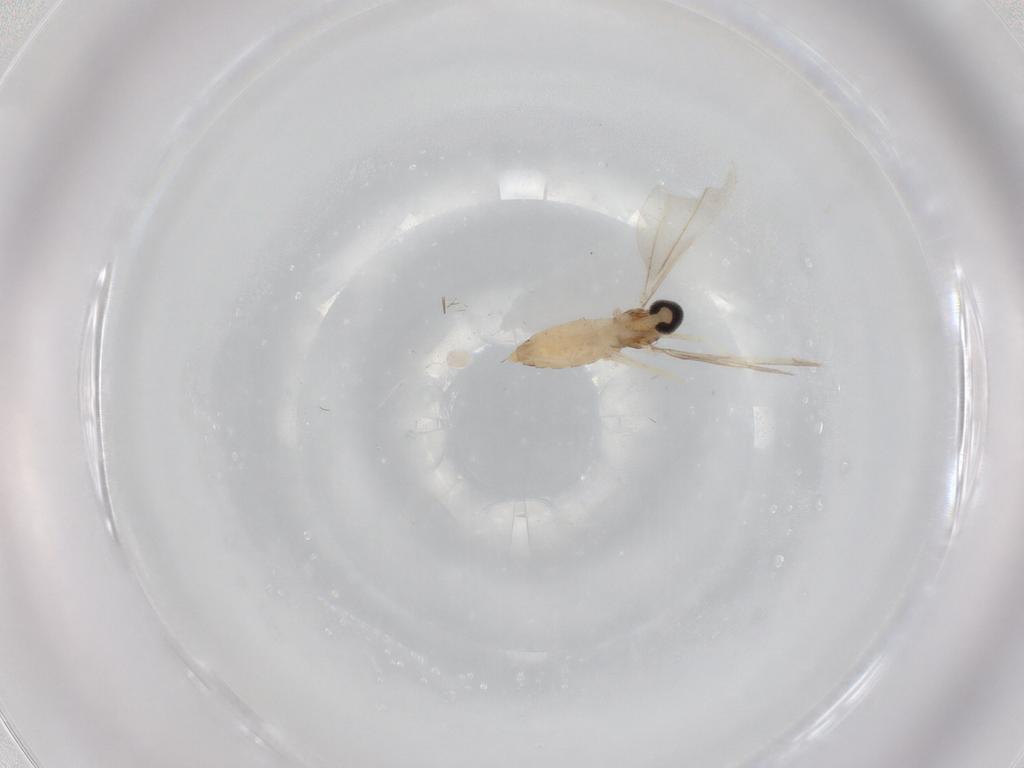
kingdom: Animalia
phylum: Arthropoda
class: Insecta
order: Diptera
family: Cecidomyiidae
